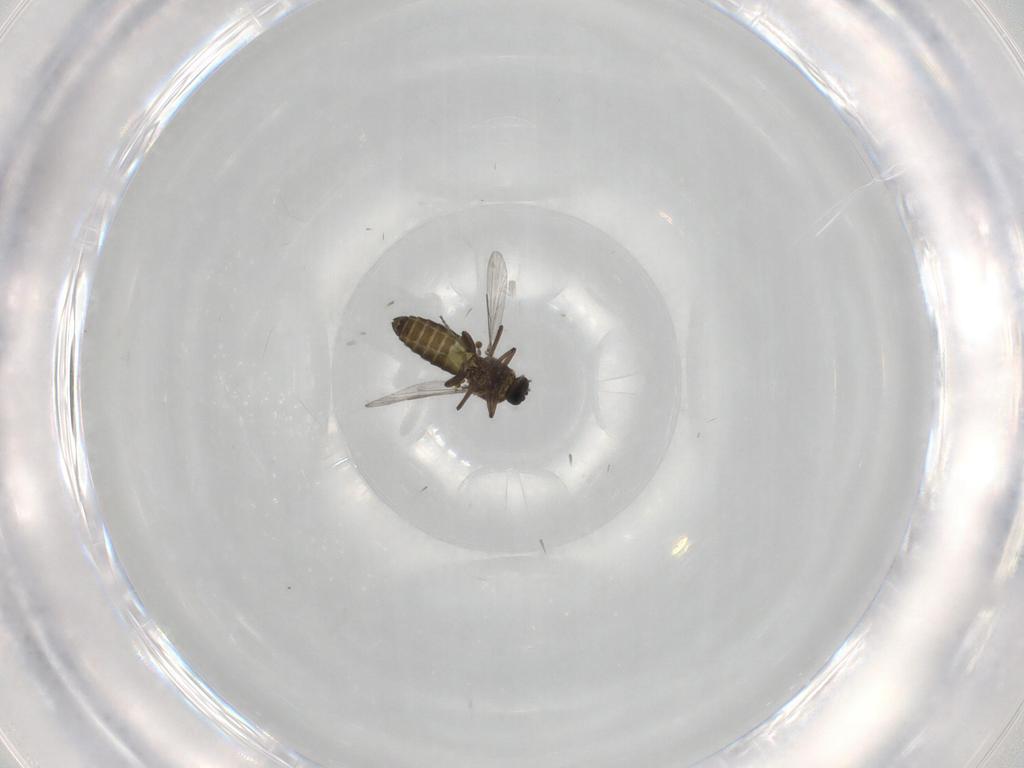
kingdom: Animalia
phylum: Arthropoda
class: Insecta
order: Diptera
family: Ceratopogonidae
